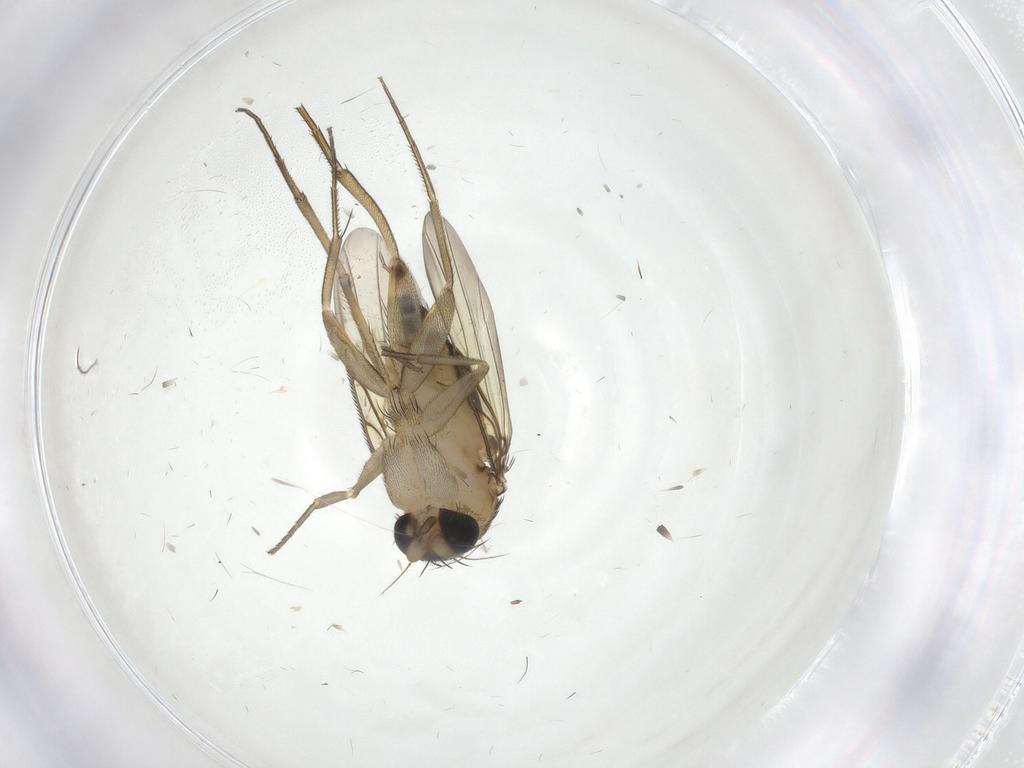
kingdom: Animalia
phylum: Arthropoda
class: Insecta
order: Diptera
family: Phoridae
